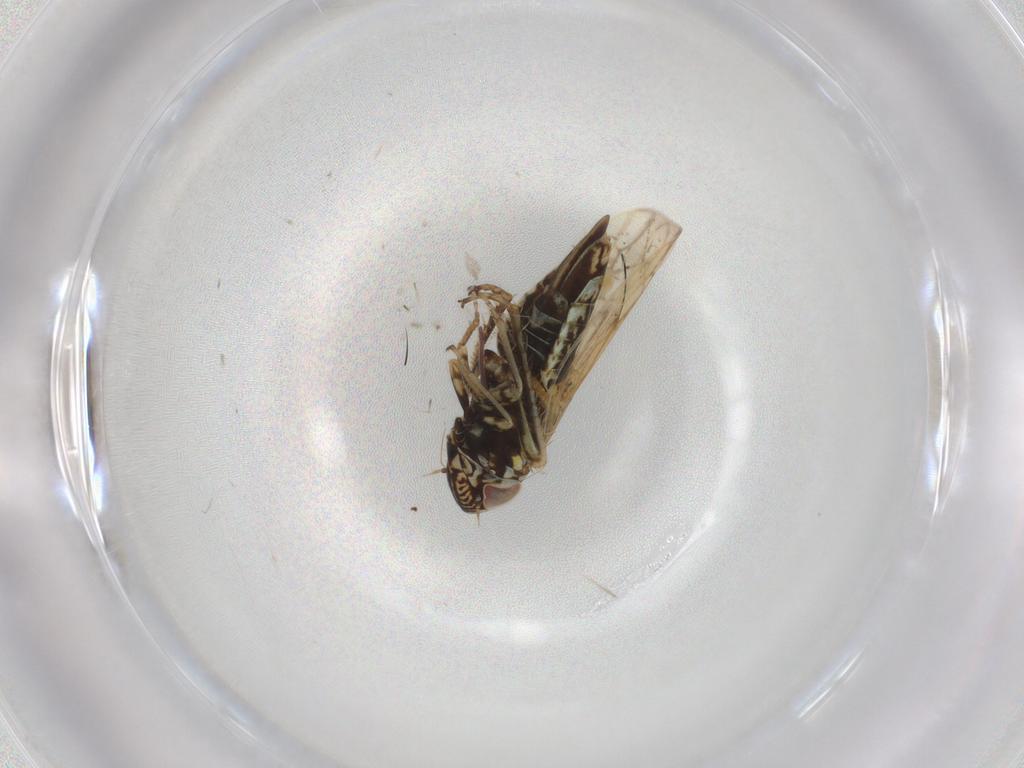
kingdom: Animalia
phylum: Arthropoda
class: Insecta
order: Hemiptera
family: Cicadellidae
